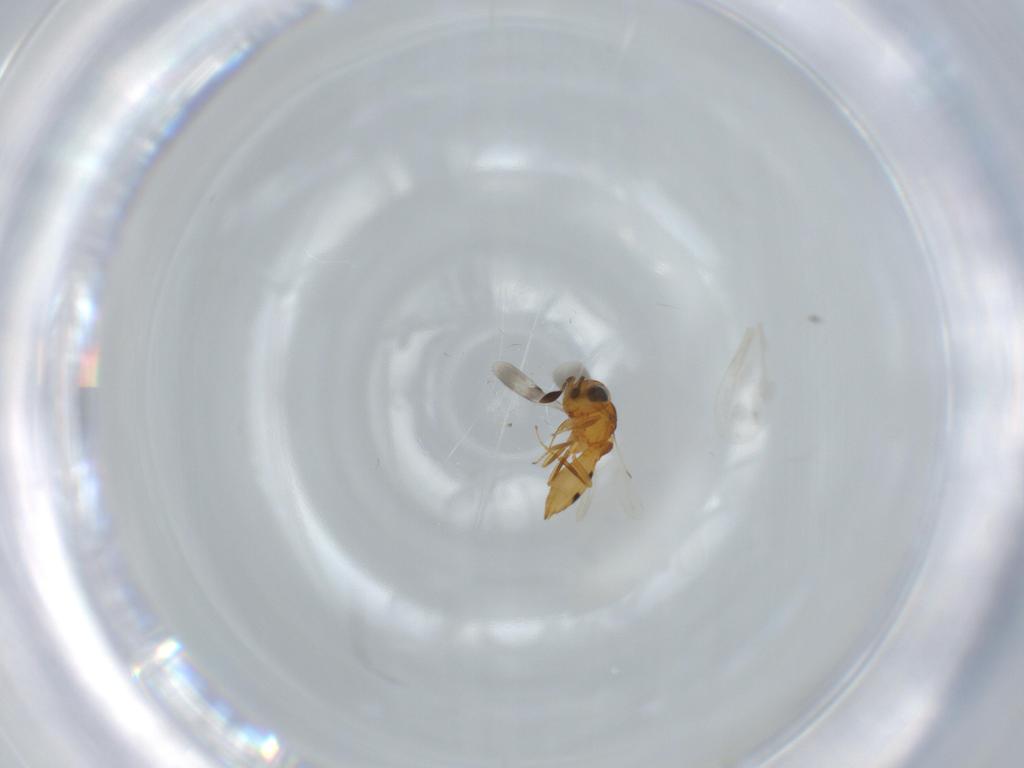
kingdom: Animalia
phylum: Arthropoda
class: Insecta
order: Hymenoptera
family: Scelionidae
